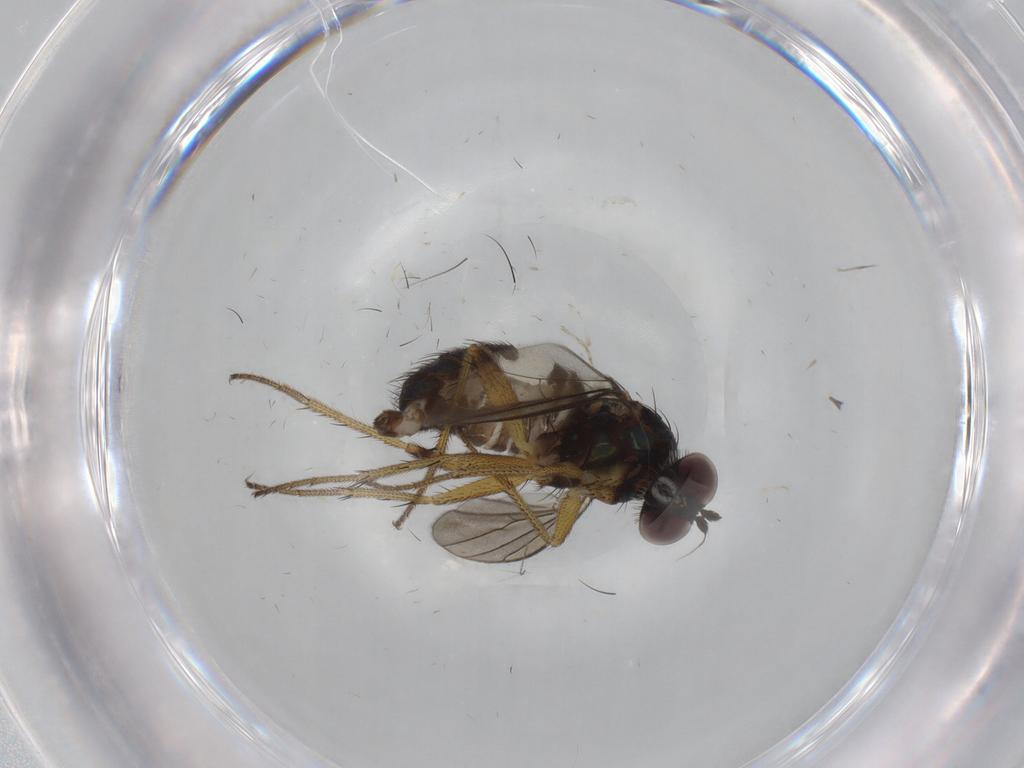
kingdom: Animalia
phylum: Arthropoda
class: Insecta
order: Diptera
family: Dolichopodidae
